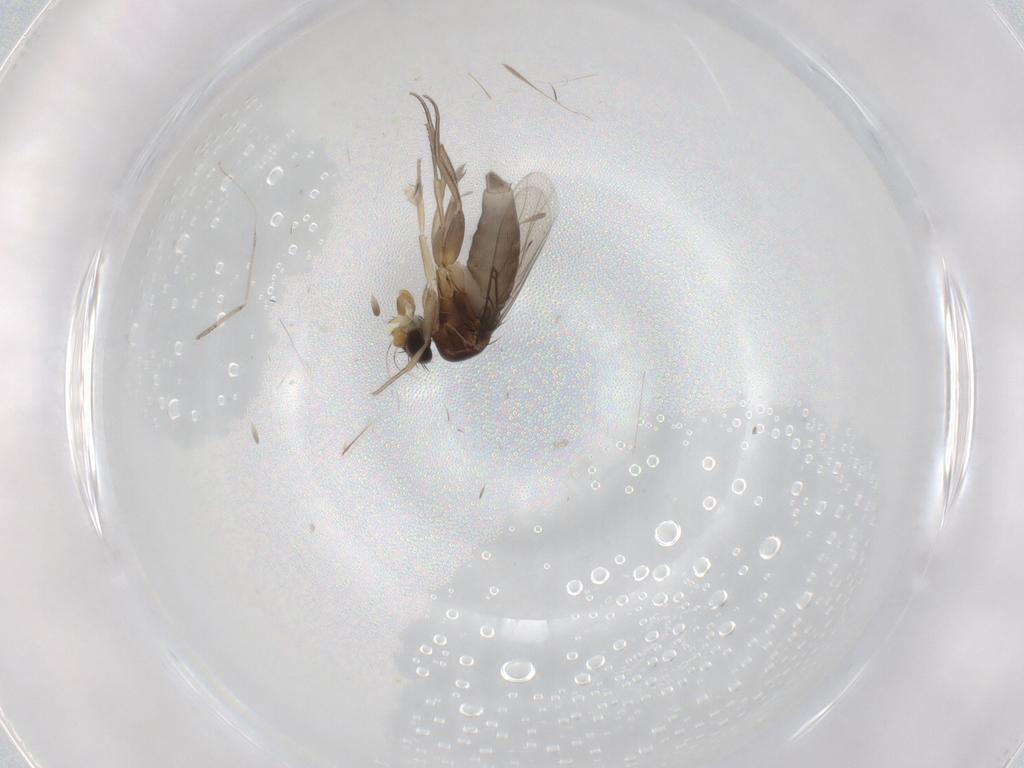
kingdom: Animalia
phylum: Arthropoda
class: Insecta
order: Diptera
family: Phoridae
